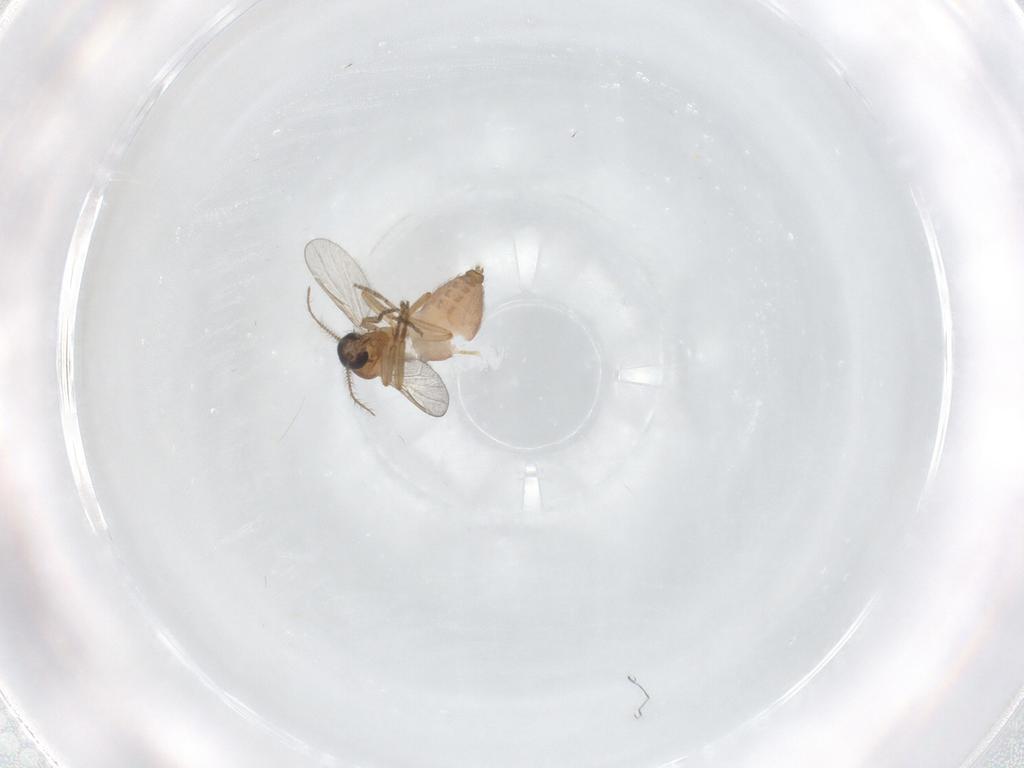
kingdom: Animalia
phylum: Arthropoda
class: Insecta
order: Diptera
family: Ceratopogonidae
